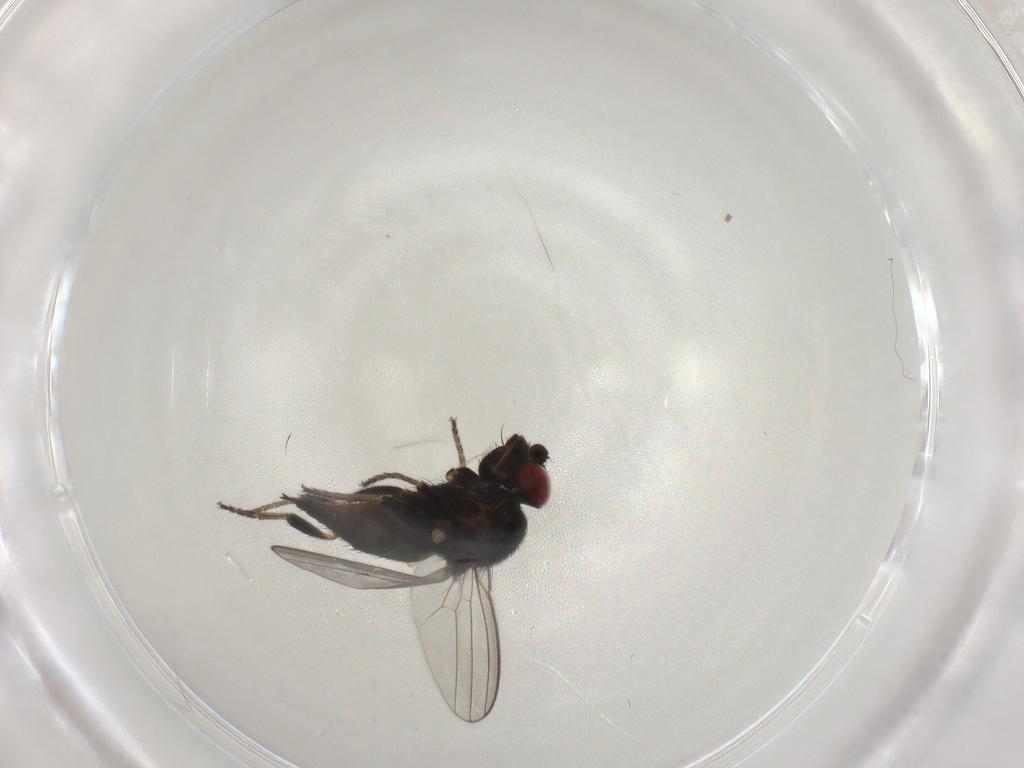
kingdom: Animalia
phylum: Arthropoda
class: Insecta
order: Diptera
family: Milichiidae
